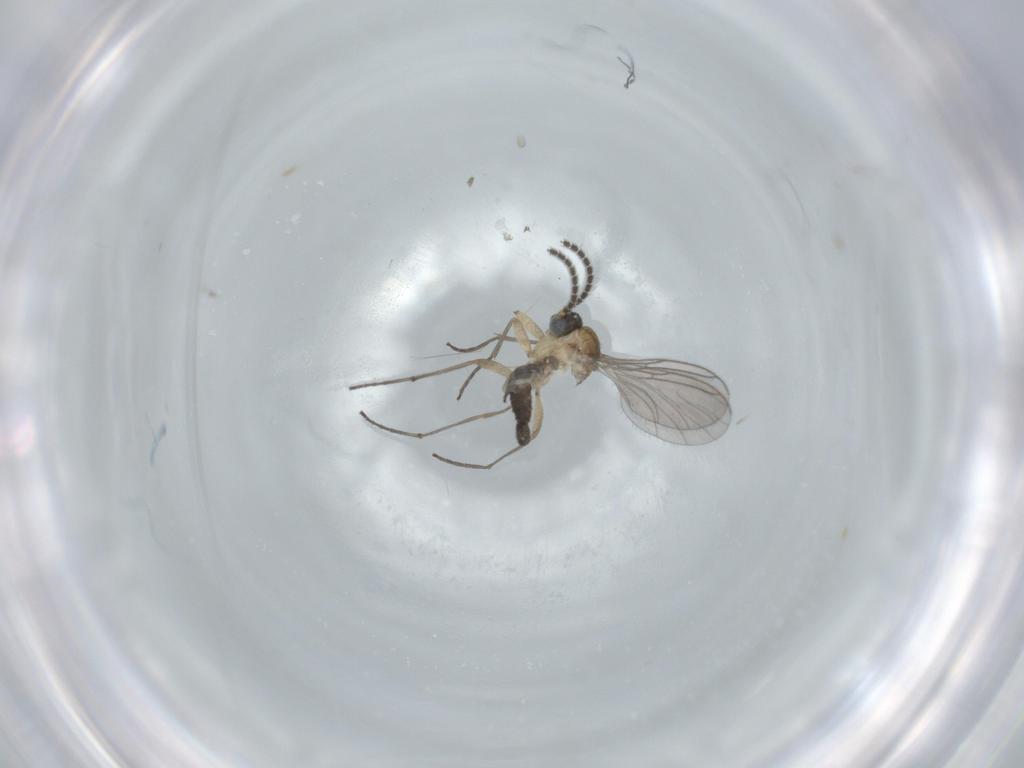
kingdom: Animalia
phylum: Arthropoda
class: Insecta
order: Diptera
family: Sciaridae
